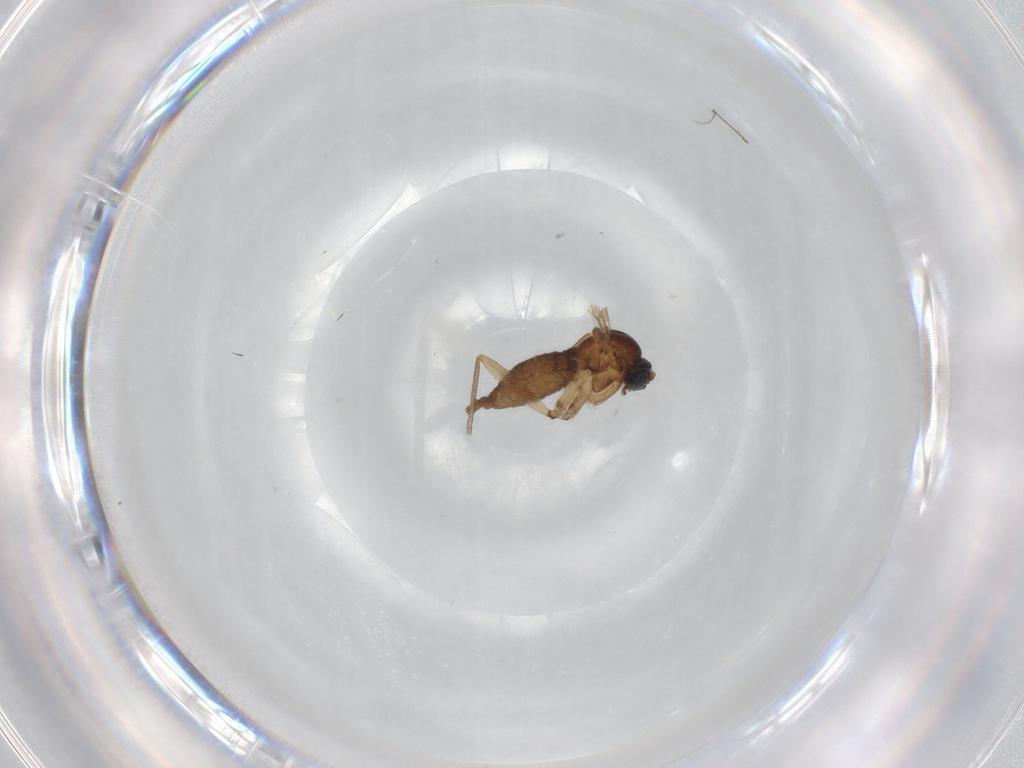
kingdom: Animalia
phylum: Arthropoda
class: Insecta
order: Diptera
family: Sciaridae
